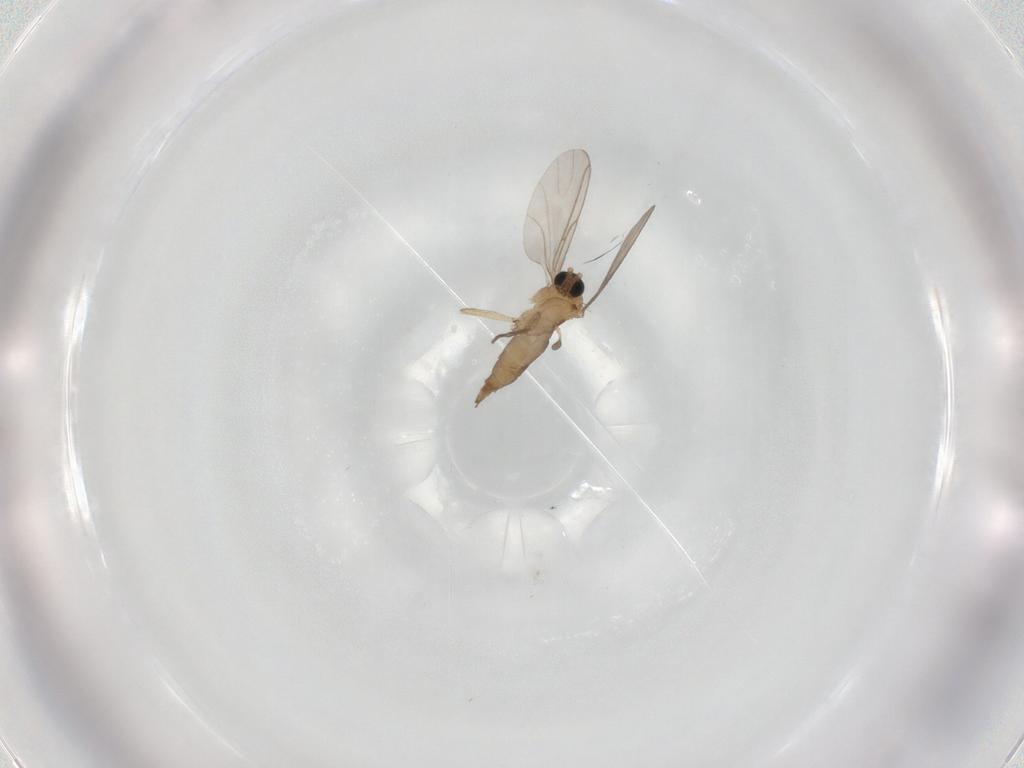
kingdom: Animalia
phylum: Arthropoda
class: Insecta
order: Diptera
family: Sciaridae
